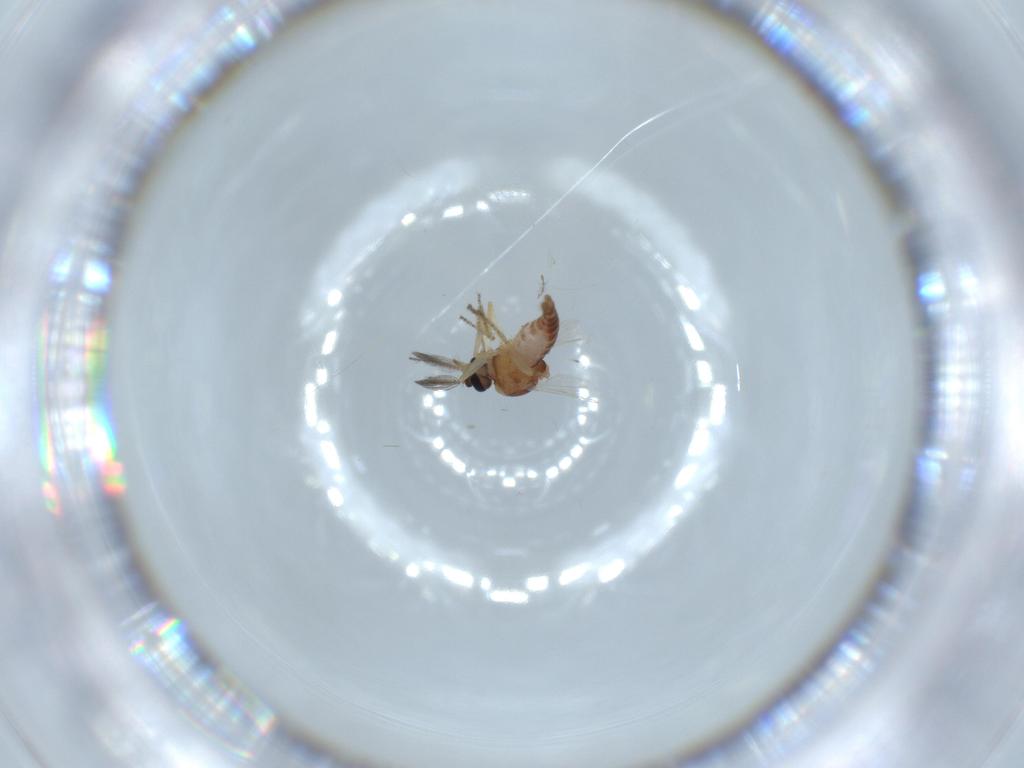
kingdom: Animalia
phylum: Arthropoda
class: Insecta
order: Diptera
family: Ceratopogonidae
